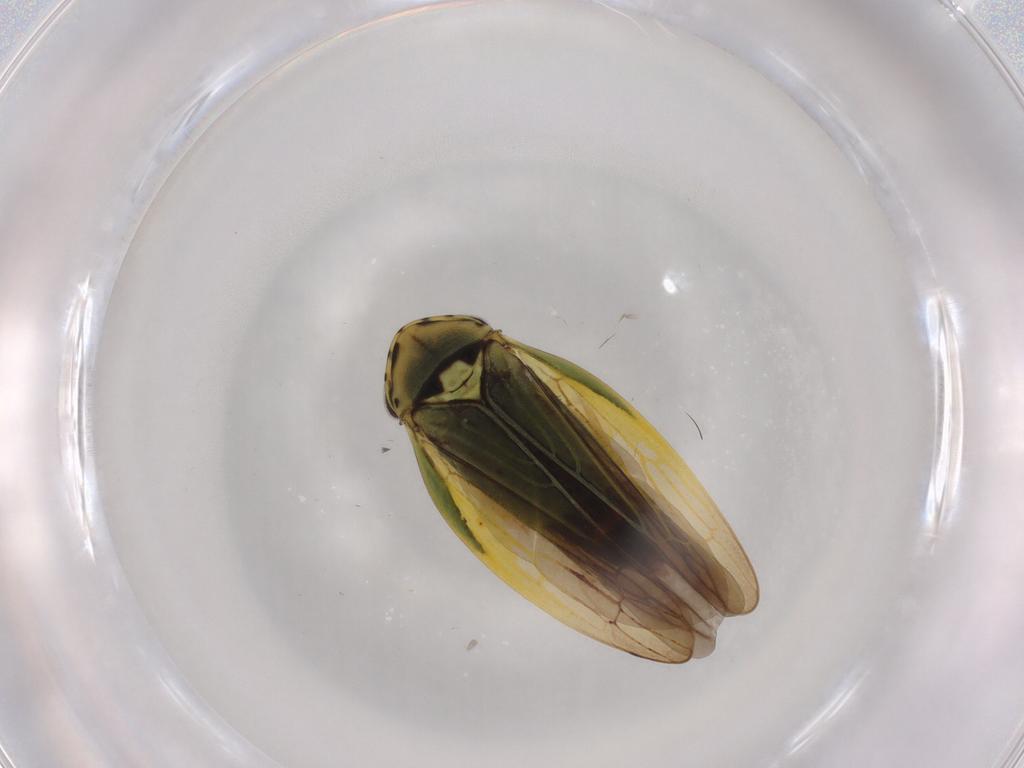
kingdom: Animalia
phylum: Arthropoda
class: Insecta
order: Hemiptera
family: Cicadellidae
